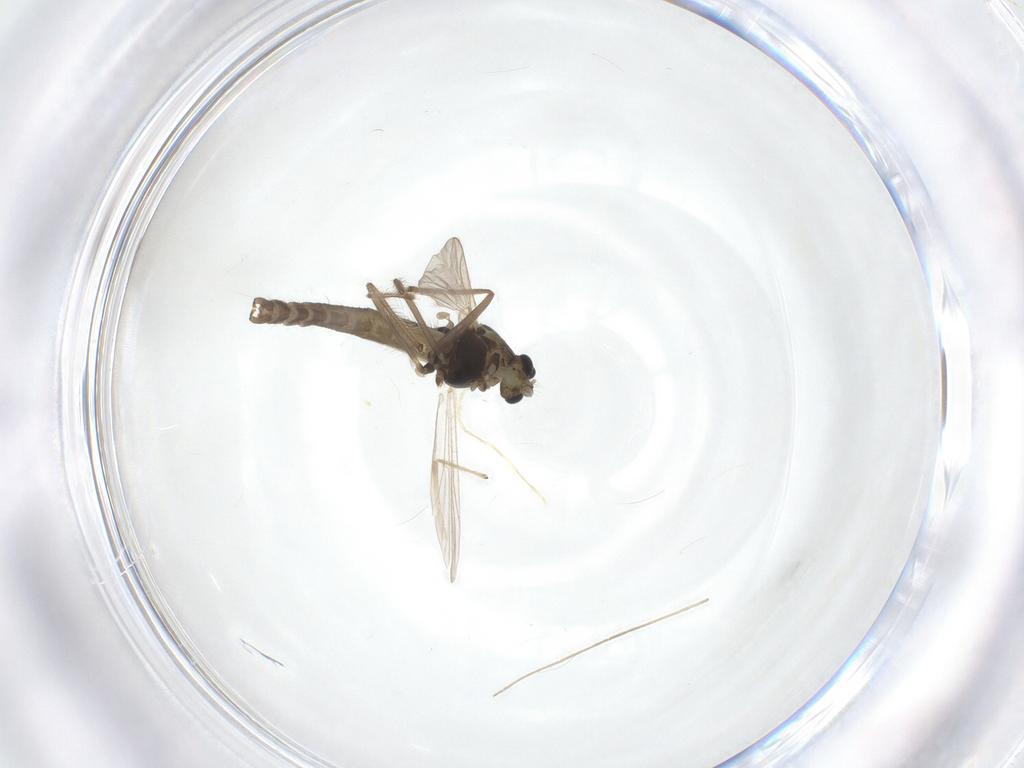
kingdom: Animalia
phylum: Arthropoda
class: Insecta
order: Diptera
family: Chironomidae
